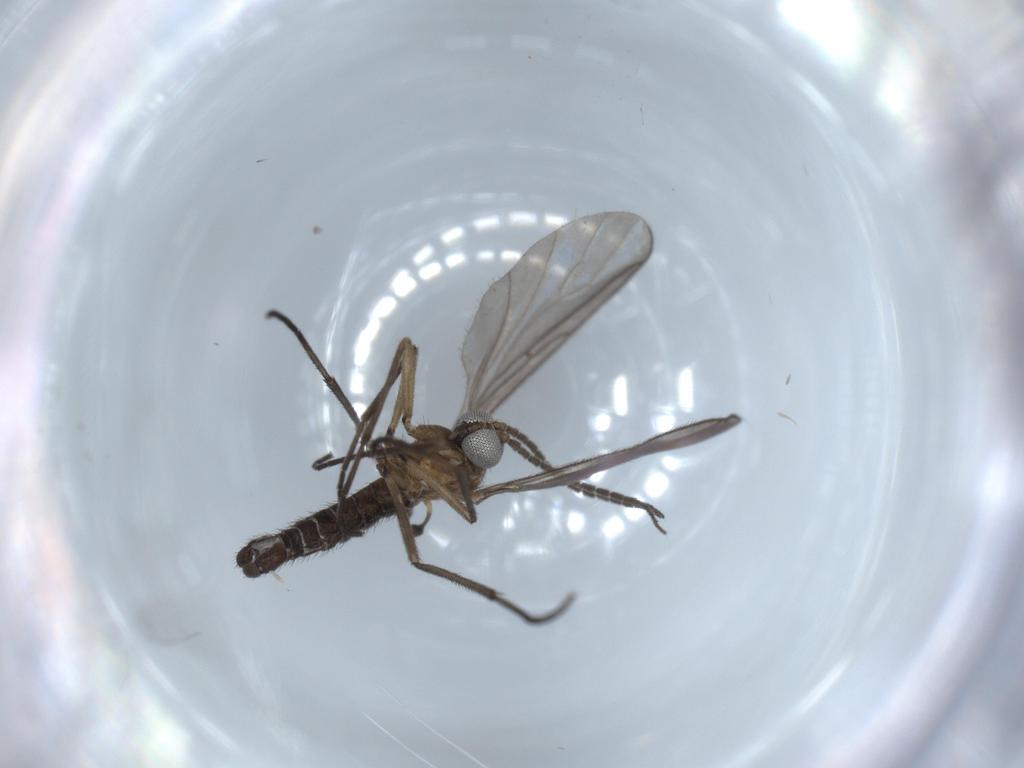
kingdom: Animalia
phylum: Arthropoda
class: Insecta
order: Diptera
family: Sciaridae
